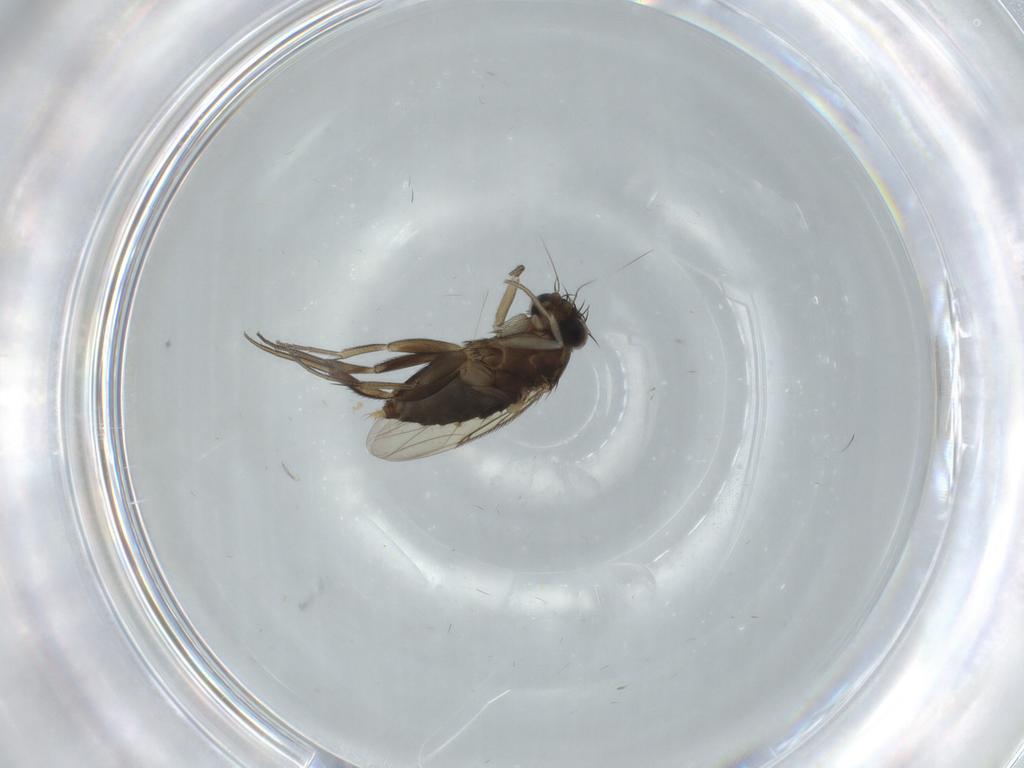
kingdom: Animalia
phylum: Arthropoda
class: Insecta
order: Diptera
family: Phoridae
